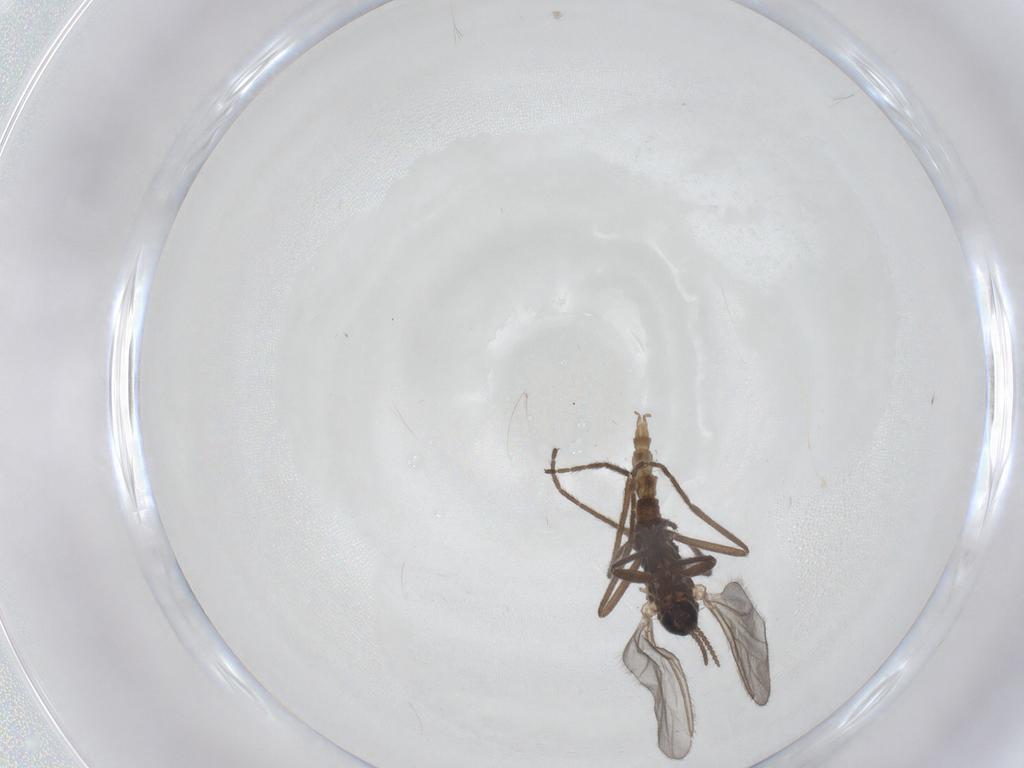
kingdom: Animalia
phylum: Arthropoda
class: Insecta
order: Diptera
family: Cecidomyiidae
